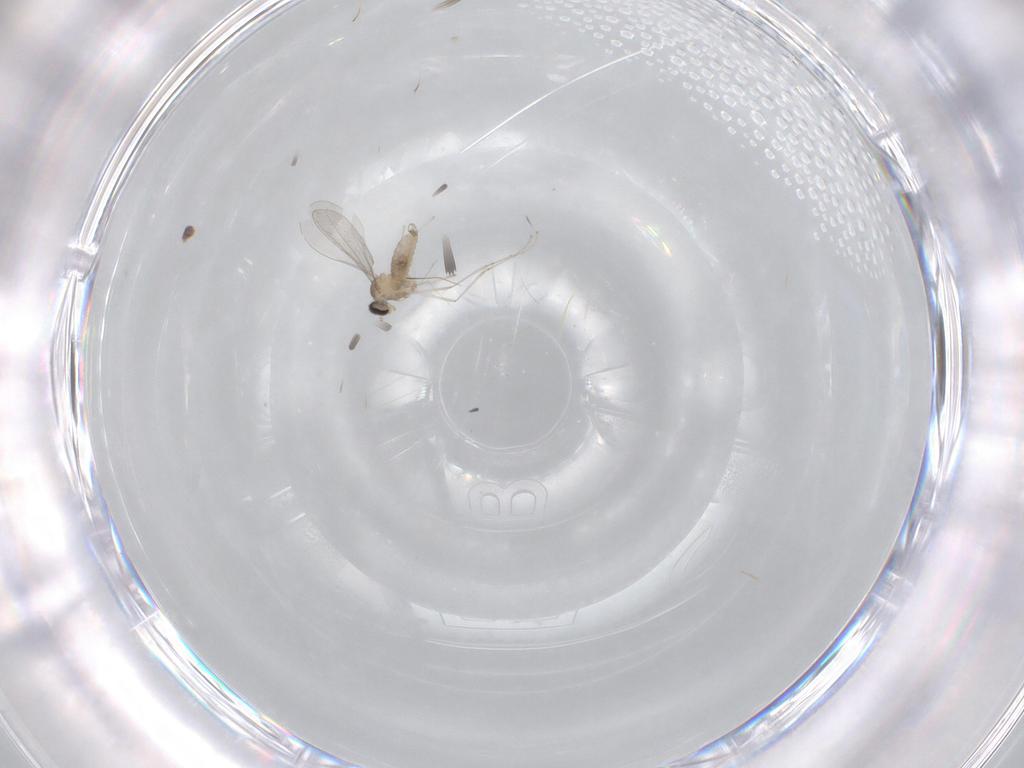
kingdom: Animalia
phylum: Arthropoda
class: Insecta
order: Diptera
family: Cecidomyiidae
